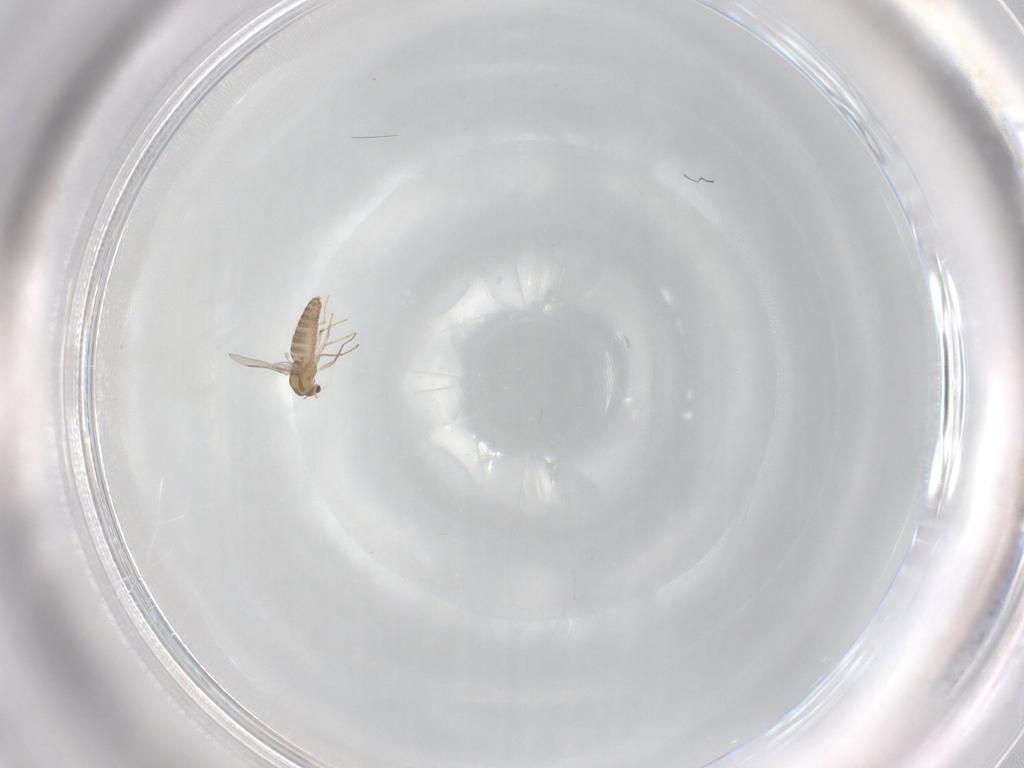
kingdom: Animalia
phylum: Arthropoda
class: Insecta
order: Diptera
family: Chironomidae
